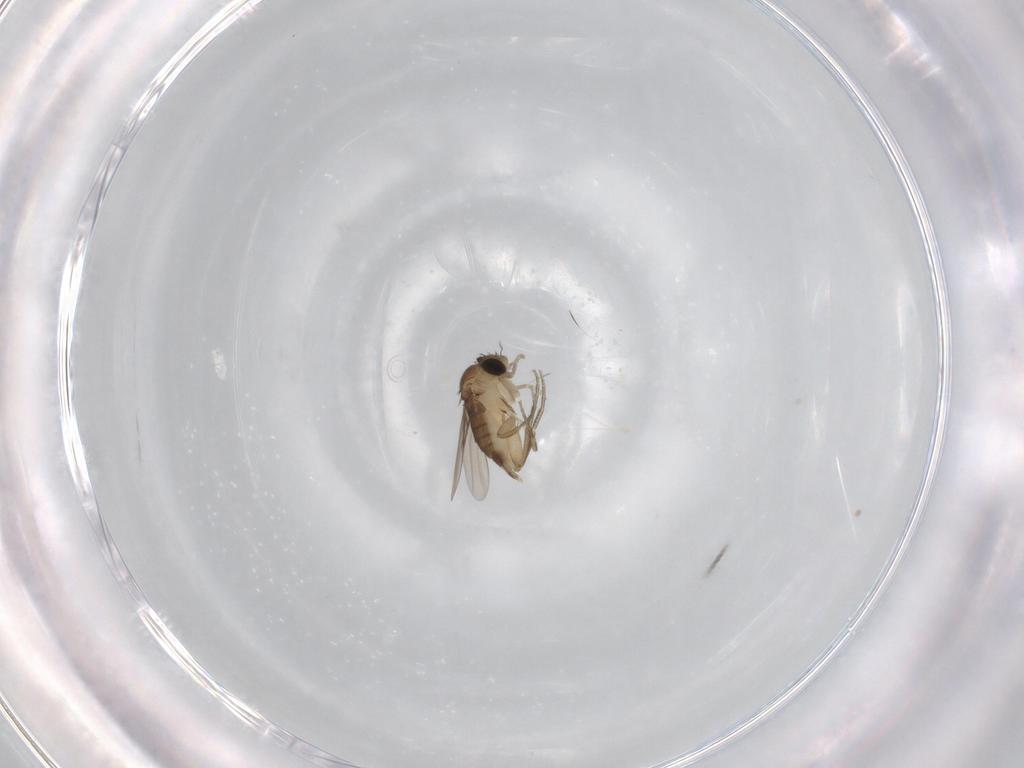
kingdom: Animalia
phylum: Arthropoda
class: Insecta
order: Diptera
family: Phoridae
